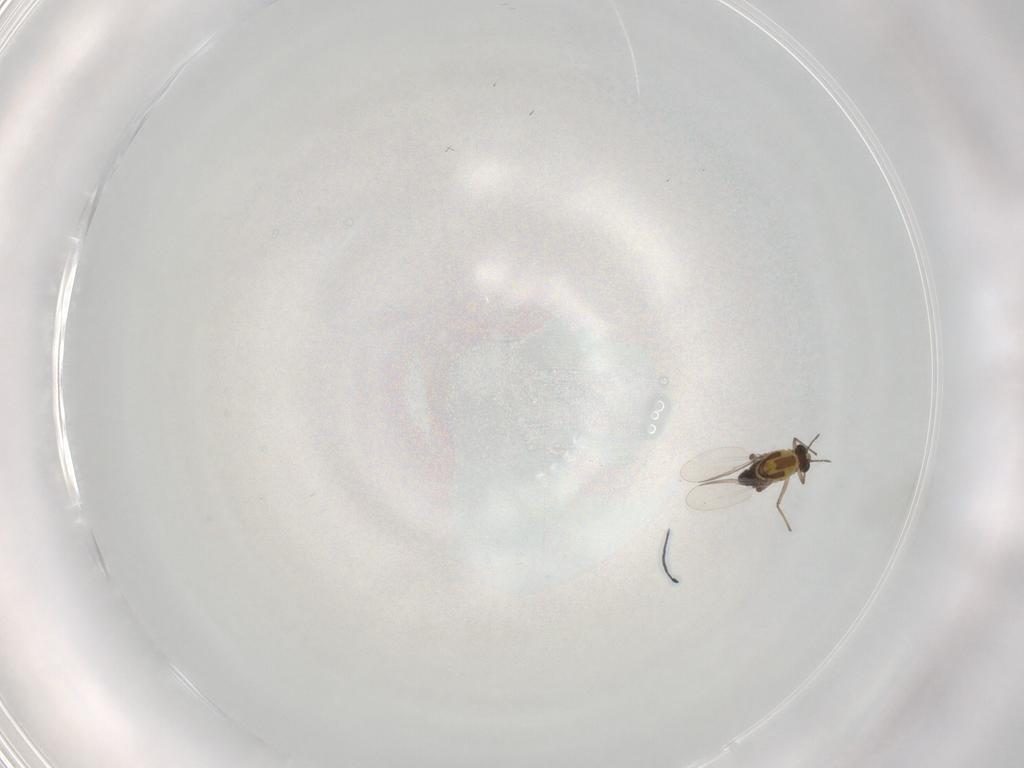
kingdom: Animalia
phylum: Arthropoda
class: Insecta
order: Diptera
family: Chironomidae
